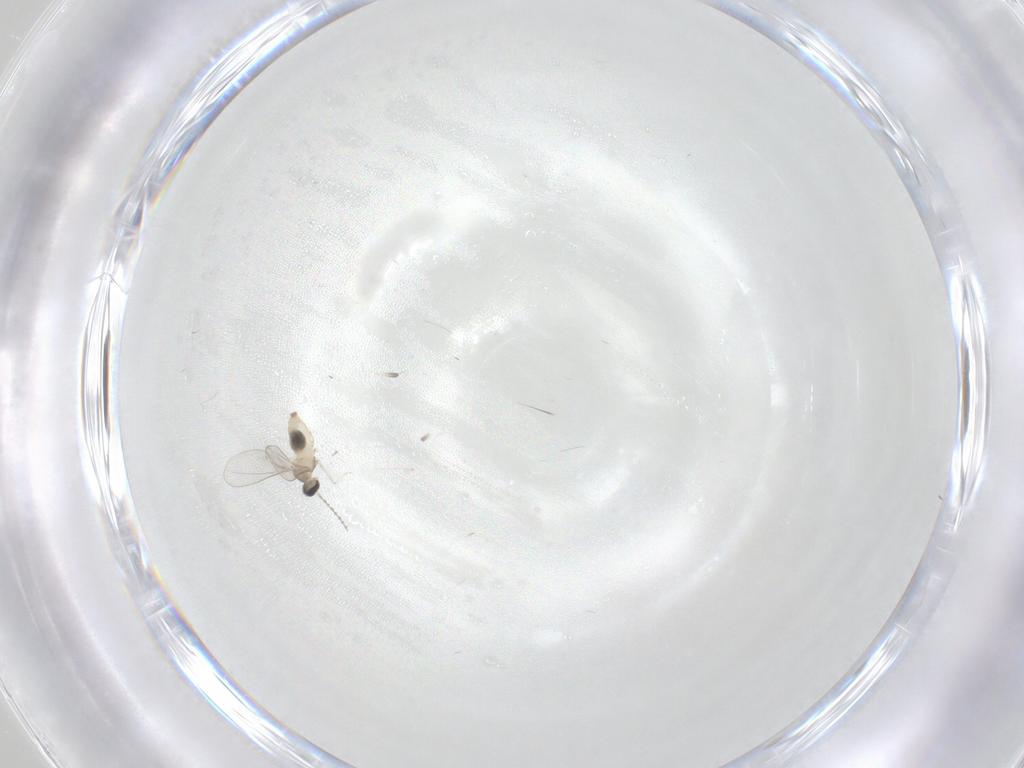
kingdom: Animalia
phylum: Arthropoda
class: Insecta
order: Diptera
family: Cecidomyiidae
